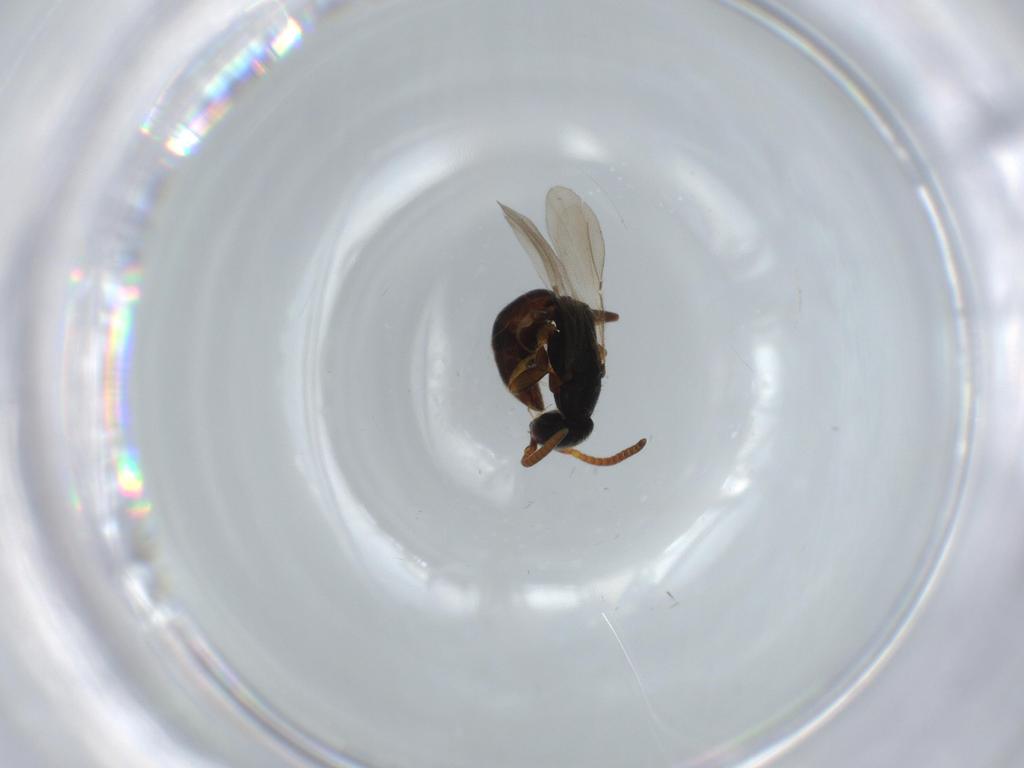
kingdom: Animalia
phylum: Arthropoda
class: Insecta
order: Hymenoptera
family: Bethylidae
